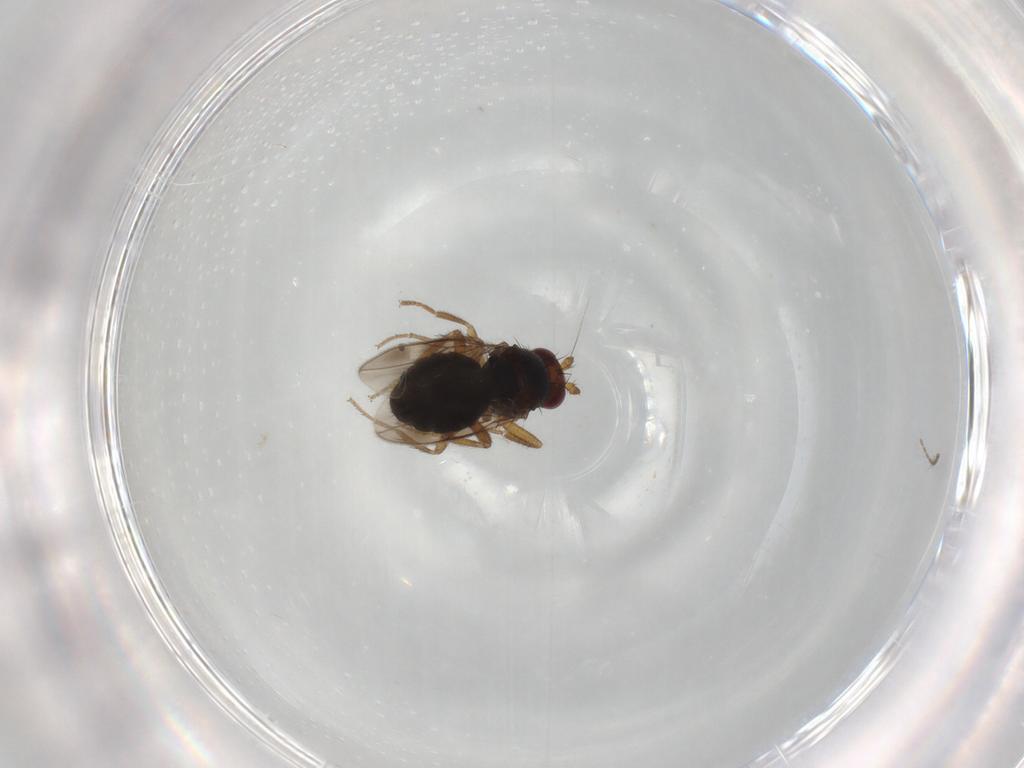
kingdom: Animalia
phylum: Arthropoda
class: Insecta
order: Diptera
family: Sphaeroceridae
